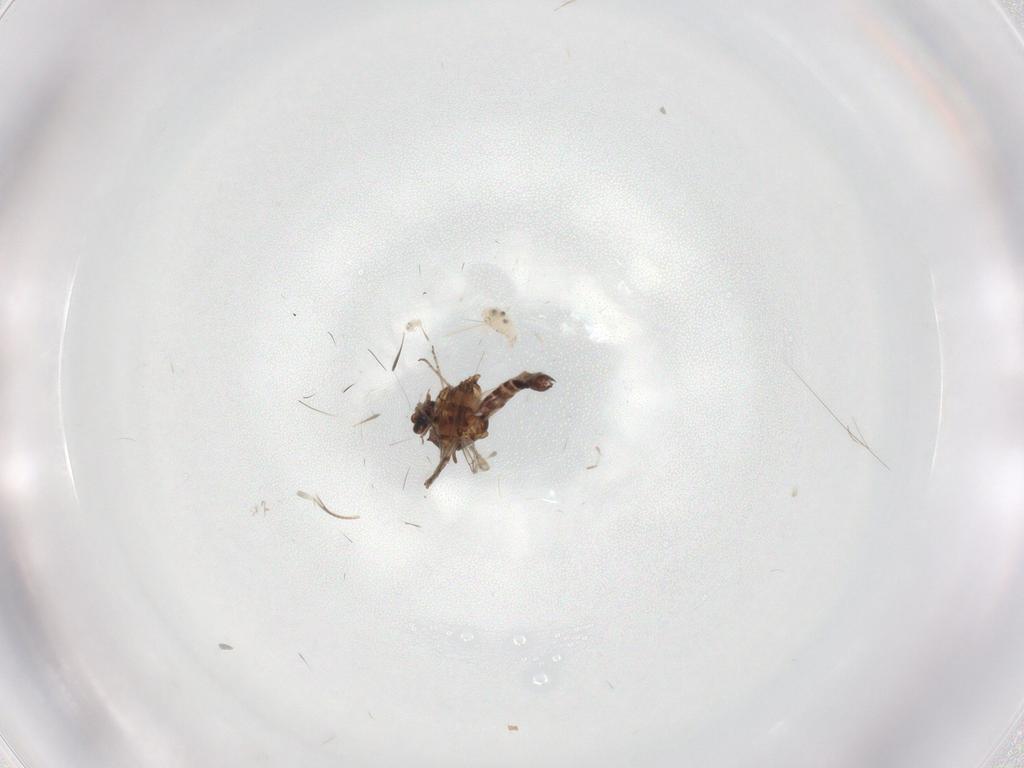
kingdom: Animalia
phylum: Arthropoda
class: Insecta
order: Diptera
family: Ceratopogonidae
